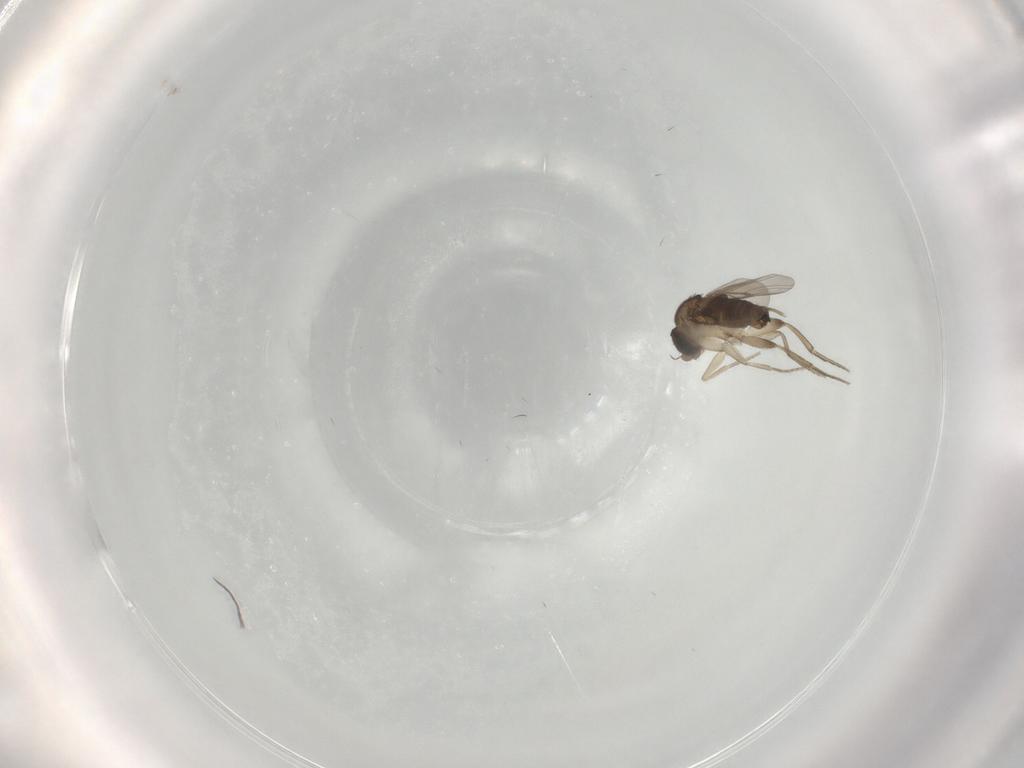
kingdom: Animalia
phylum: Arthropoda
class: Insecta
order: Diptera
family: Phoridae
